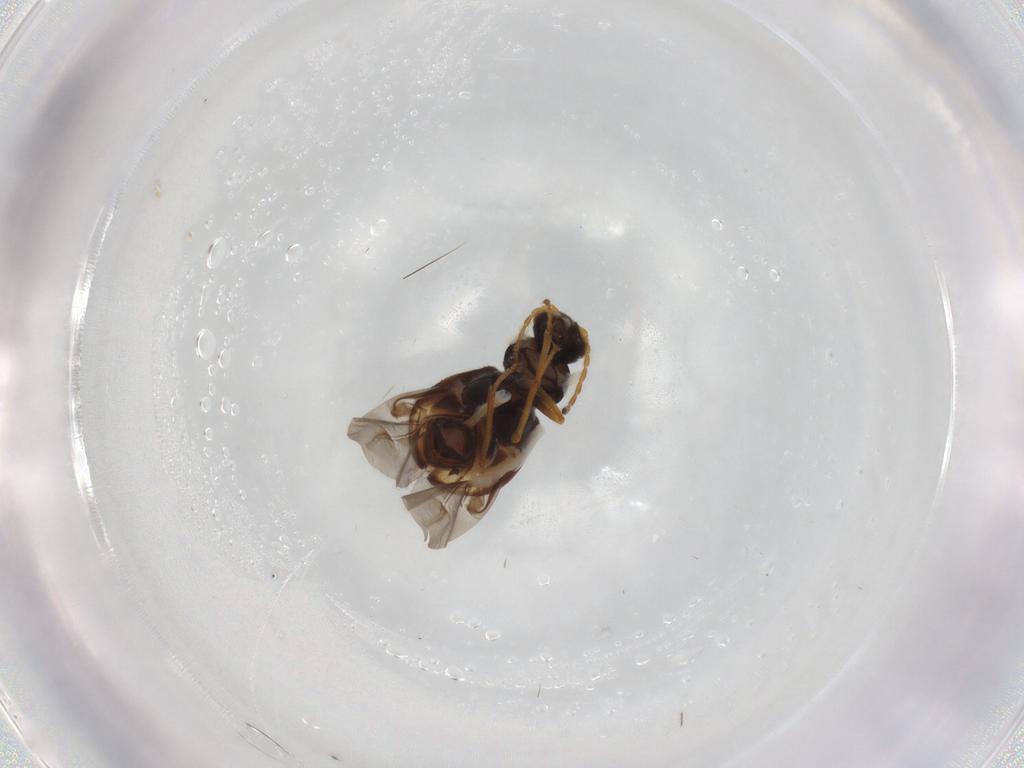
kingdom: Animalia
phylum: Arthropoda
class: Insecta
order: Coleoptera
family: Melyridae
